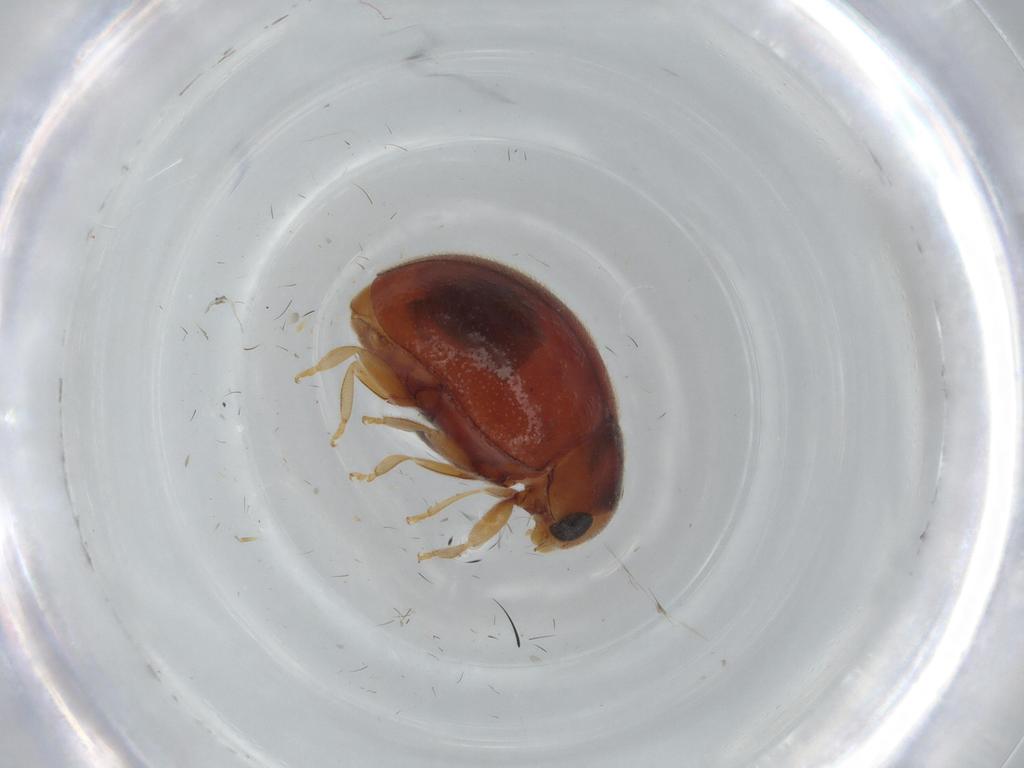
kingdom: Animalia
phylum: Arthropoda
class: Insecta
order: Coleoptera
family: Coccinellidae
